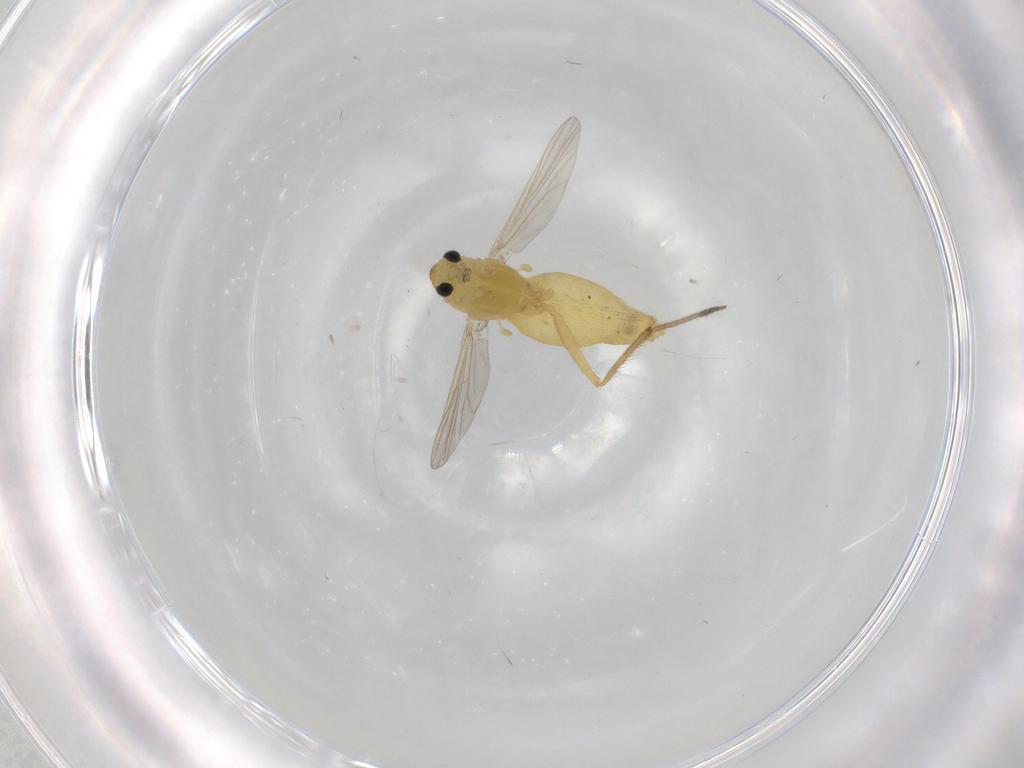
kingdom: Animalia
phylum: Arthropoda
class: Insecta
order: Diptera
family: Chironomidae
